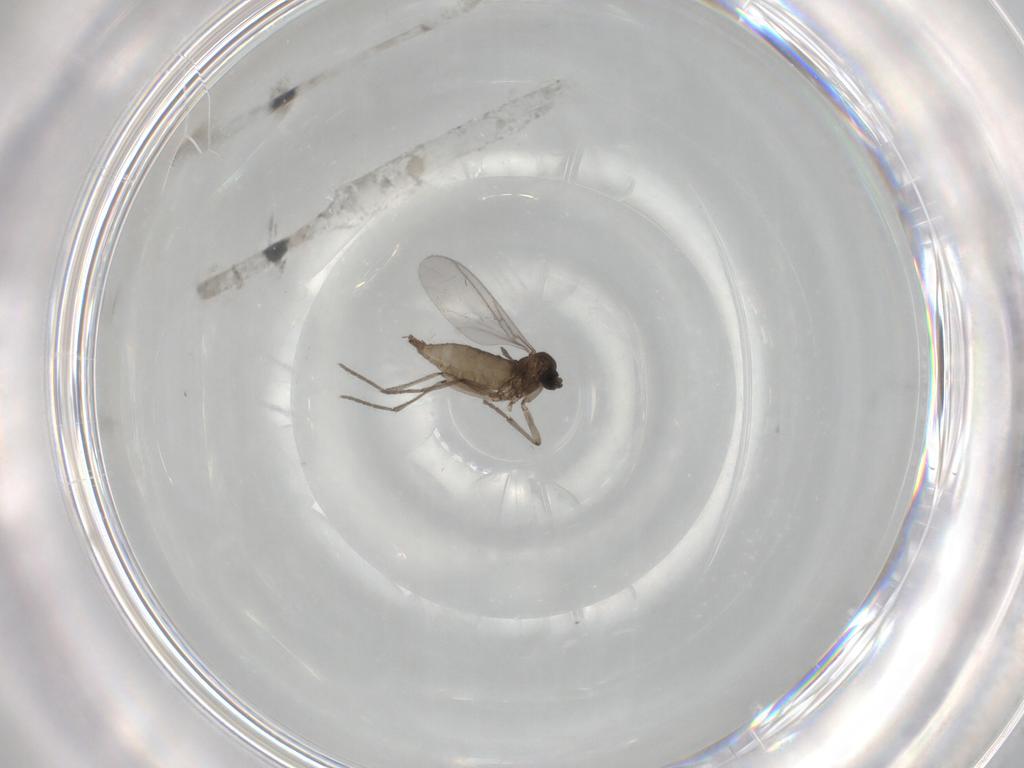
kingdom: Animalia
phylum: Arthropoda
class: Insecta
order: Diptera
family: Sciaridae
